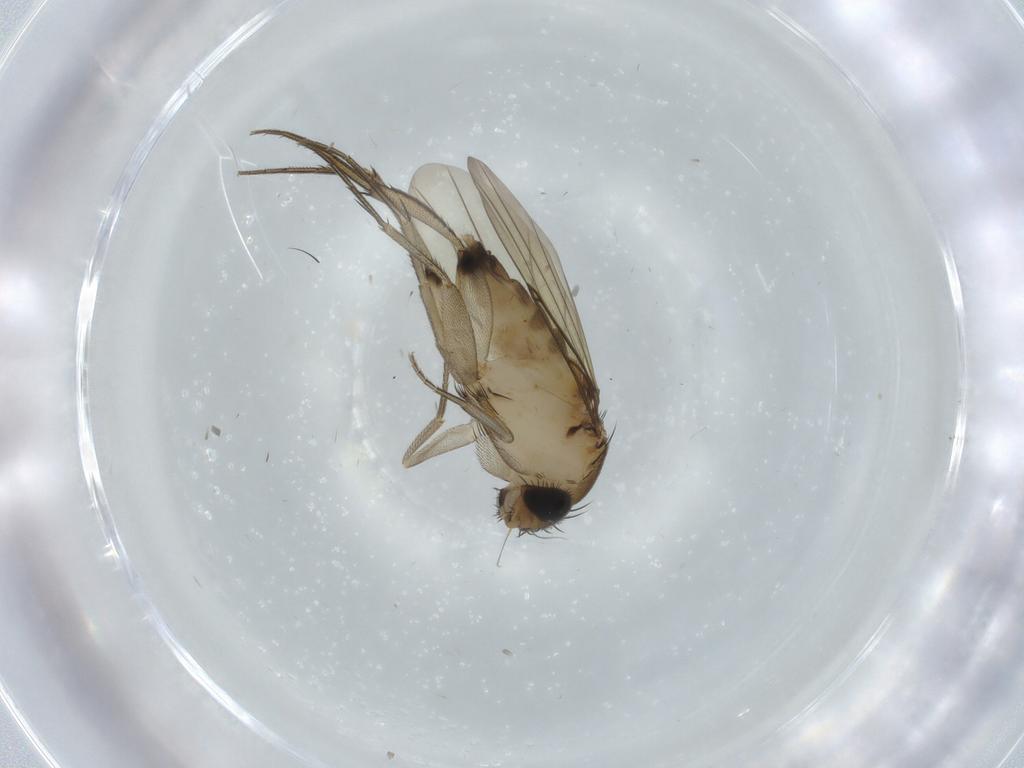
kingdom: Animalia
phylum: Arthropoda
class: Insecta
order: Diptera
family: Phoridae
